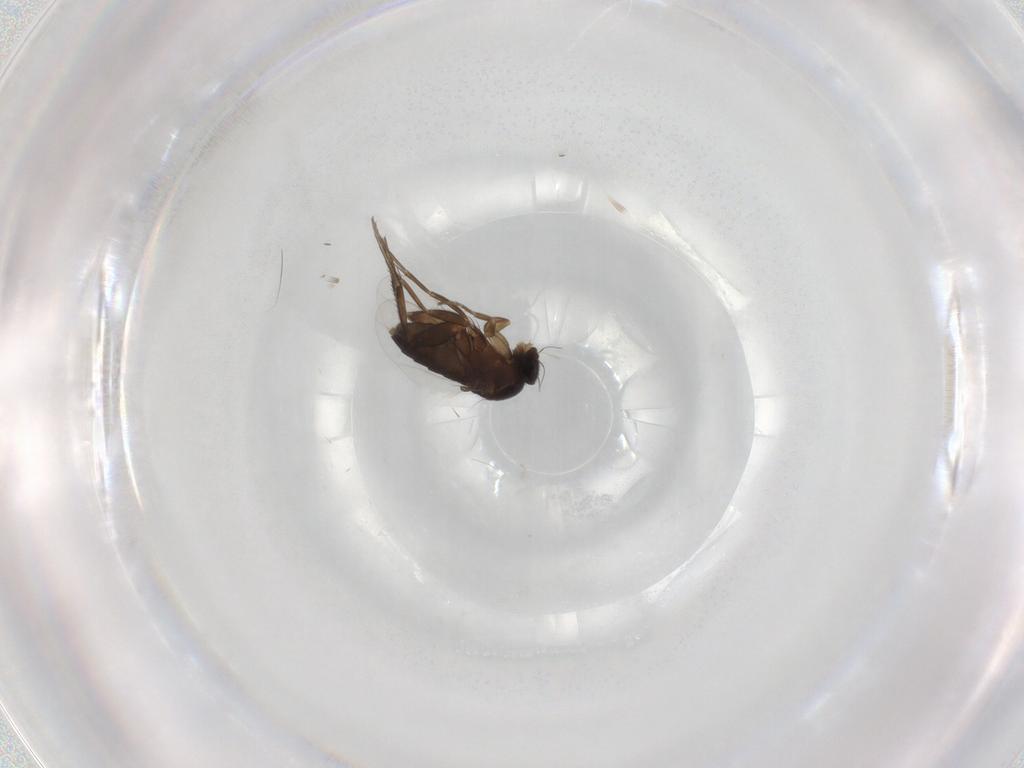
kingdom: Animalia
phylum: Arthropoda
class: Insecta
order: Diptera
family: Phoridae
